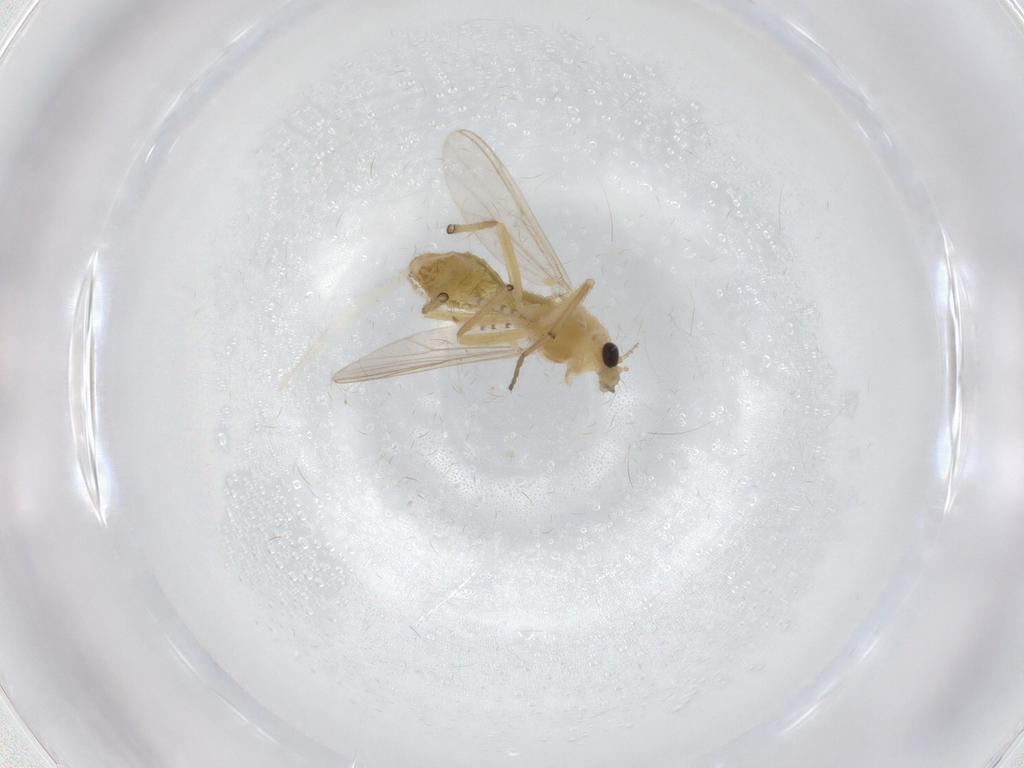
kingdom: Animalia
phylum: Arthropoda
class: Insecta
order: Diptera
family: Chironomidae
